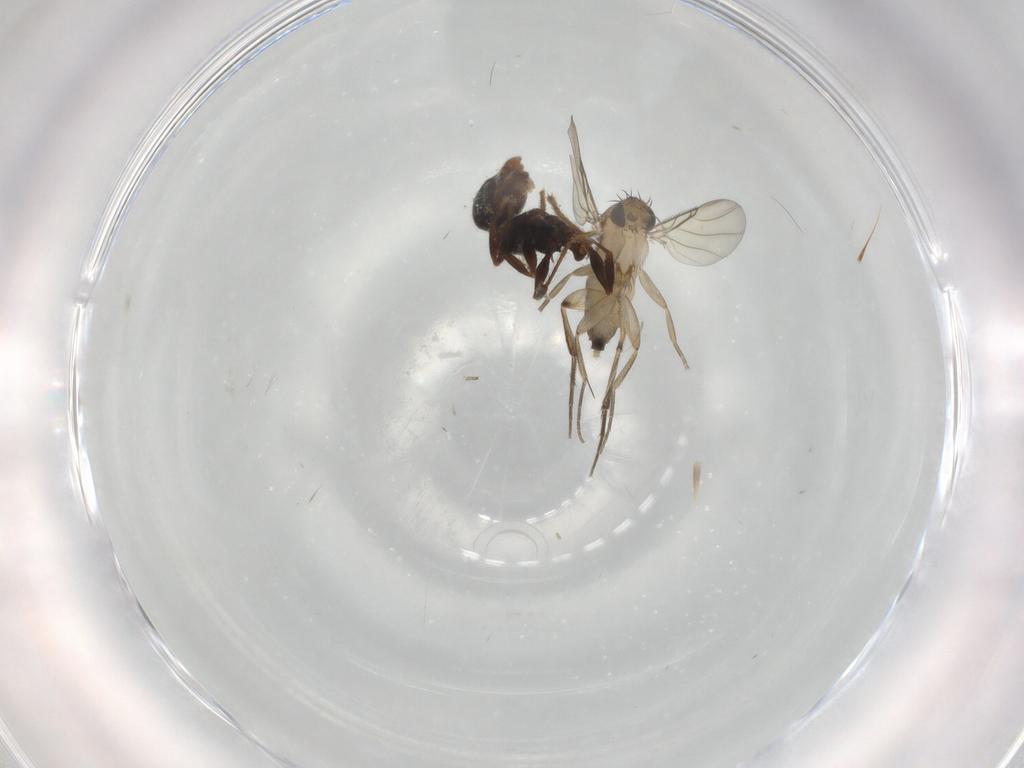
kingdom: Animalia
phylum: Arthropoda
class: Insecta
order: Diptera
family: Phoridae
